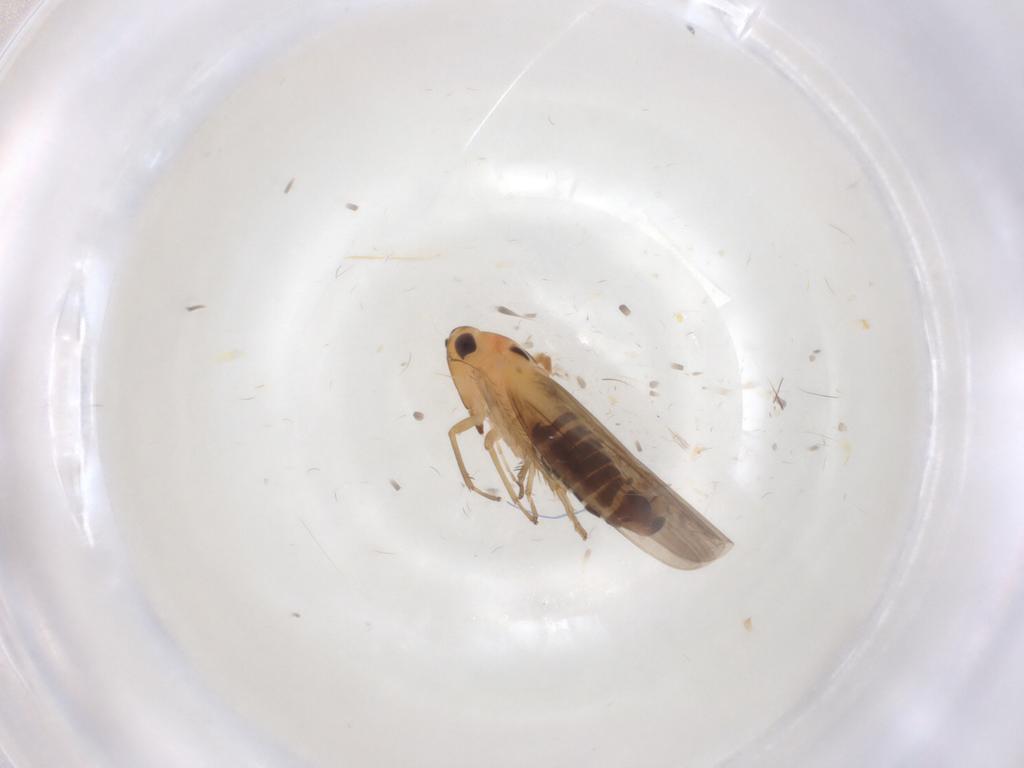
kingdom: Animalia
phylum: Arthropoda
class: Insecta
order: Hemiptera
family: Cicadellidae
